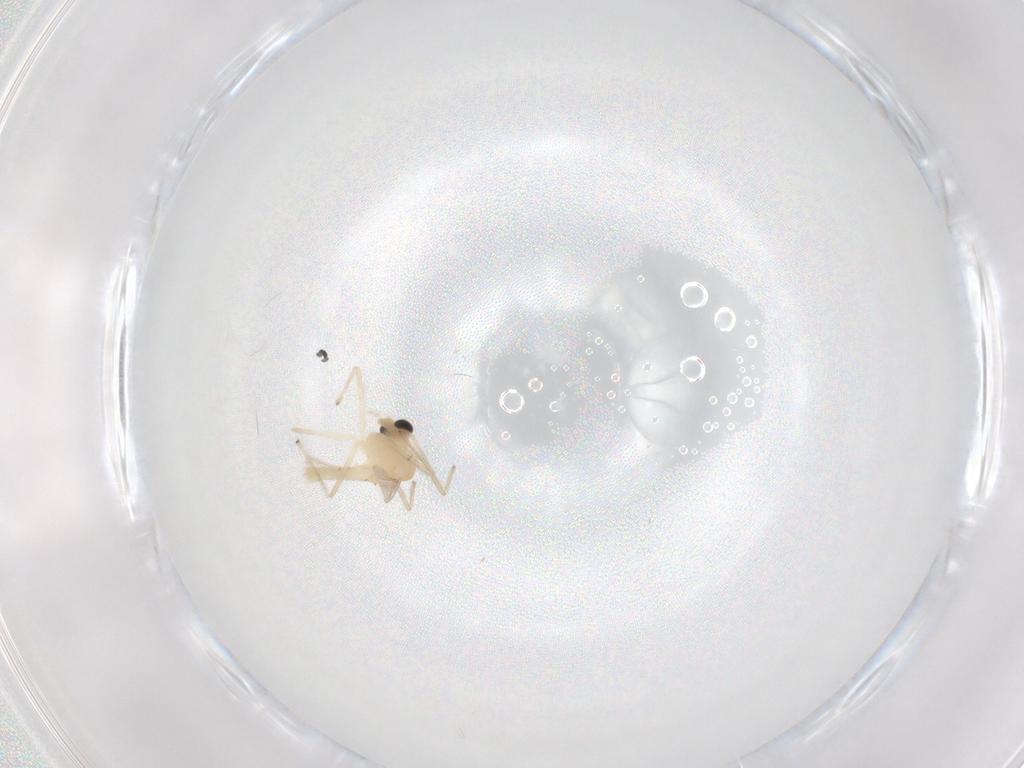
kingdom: Animalia
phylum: Arthropoda
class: Insecta
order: Diptera
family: Chironomidae
